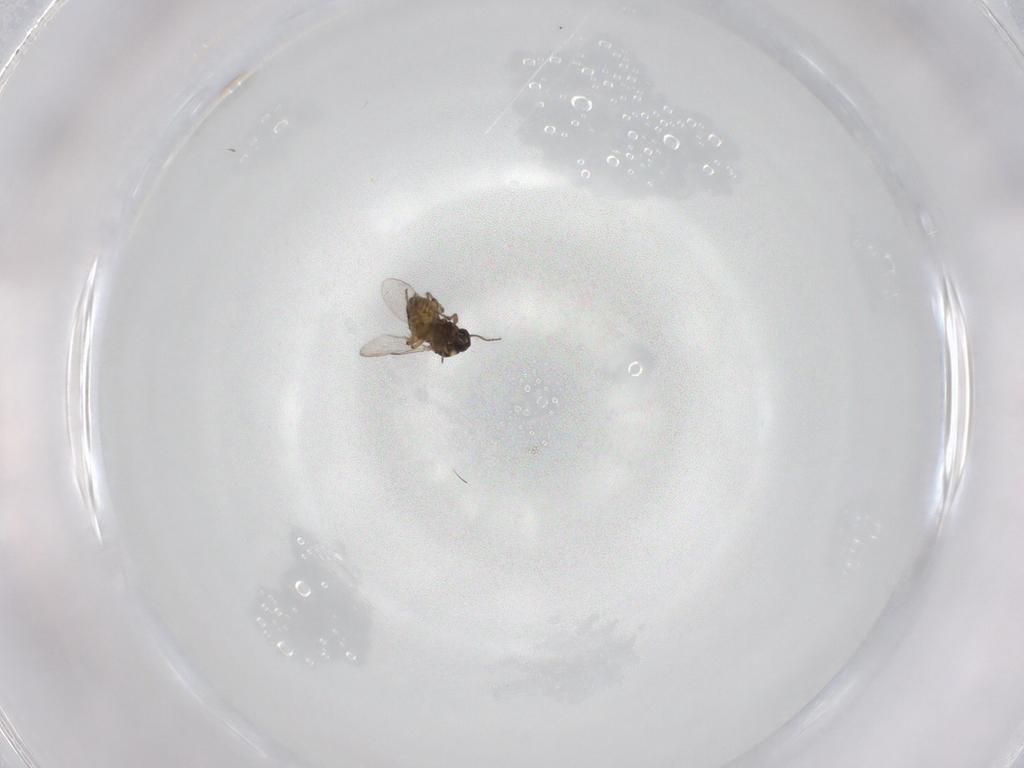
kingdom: Animalia
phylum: Arthropoda
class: Insecta
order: Diptera
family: Ceratopogonidae
